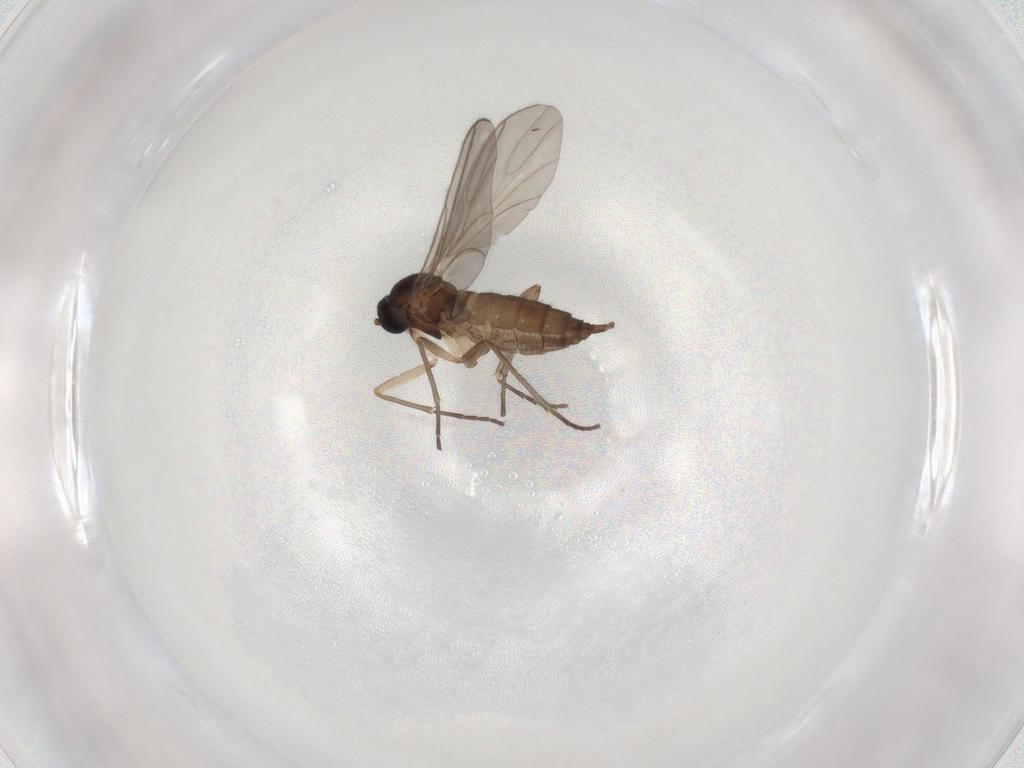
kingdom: Animalia
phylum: Arthropoda
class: Insecta
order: Diptera
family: Sciaridae
